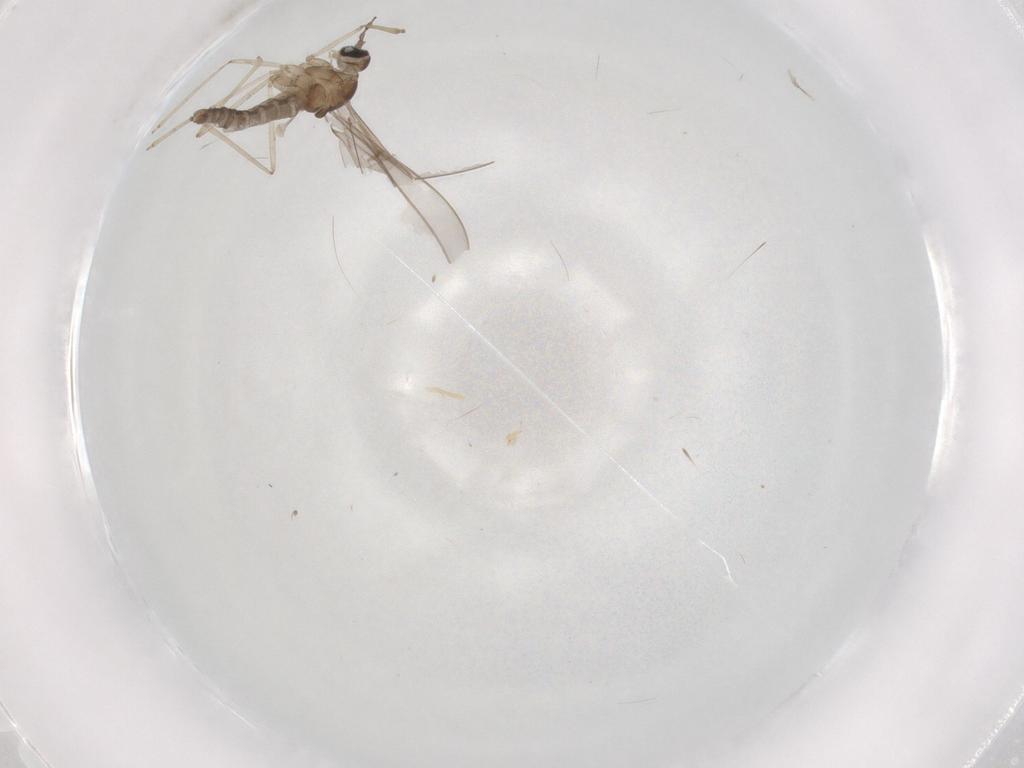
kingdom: Animalia
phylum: Arthropoda
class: Insecta
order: Diptera
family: Cecidomyiidae
